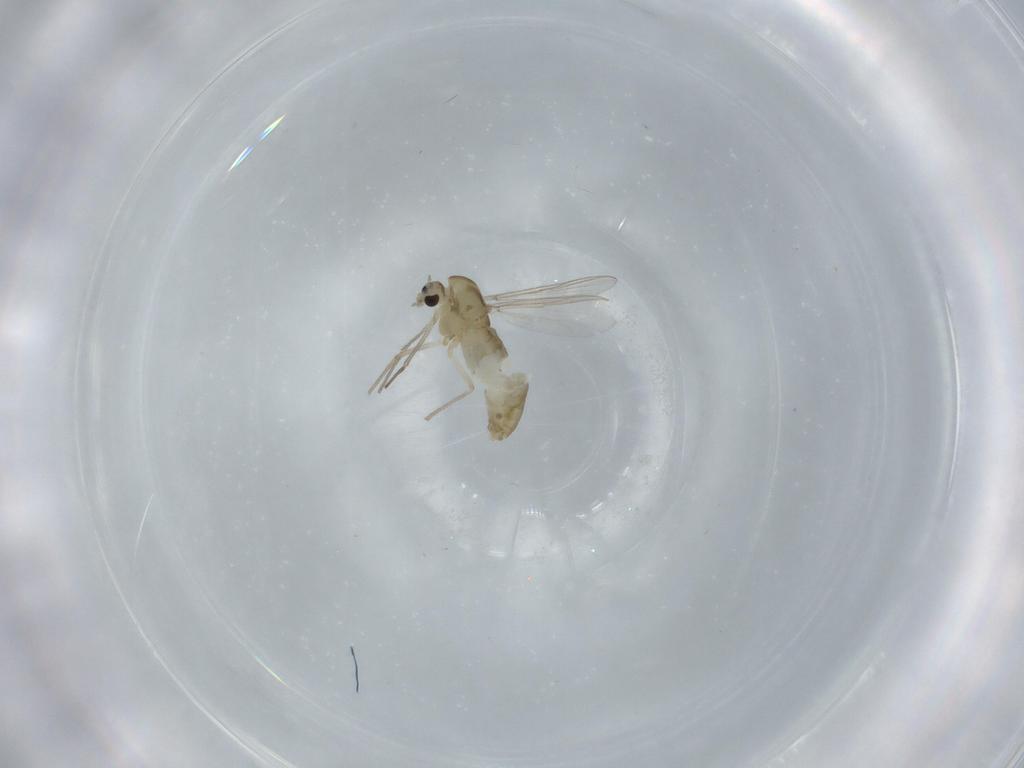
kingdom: Animalia
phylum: Arthropoda
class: Insecta
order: Diptera
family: Chironomidae
